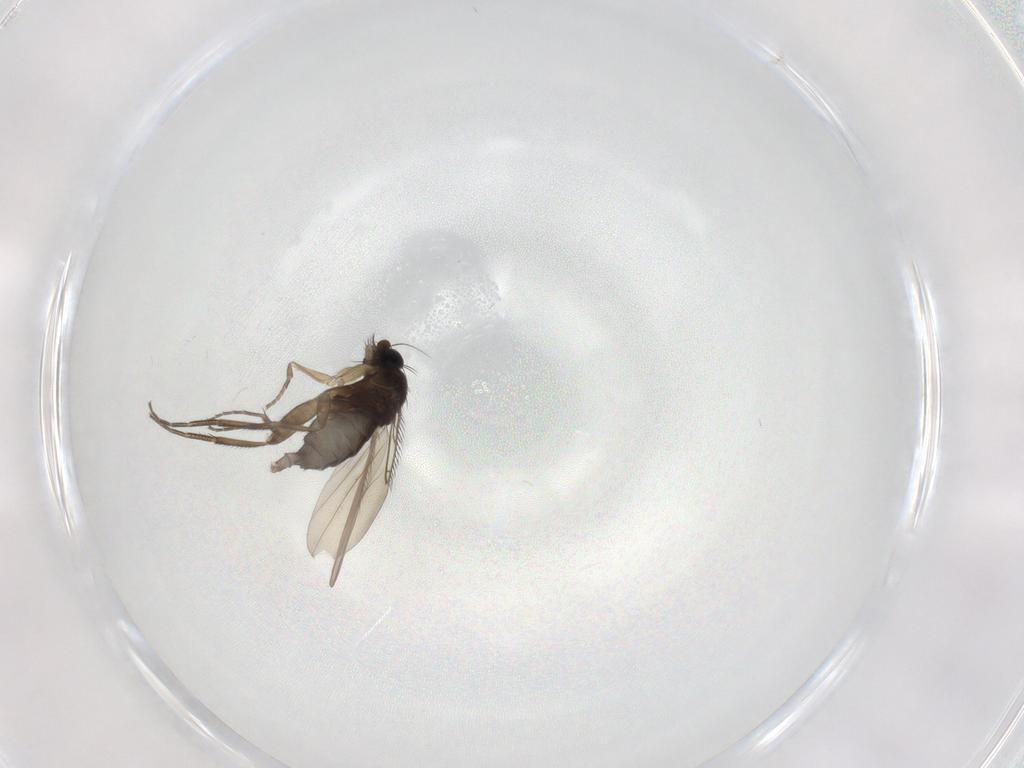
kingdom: Animalia
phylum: Arthropoda
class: Insecta
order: Diptera
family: Phoridae
